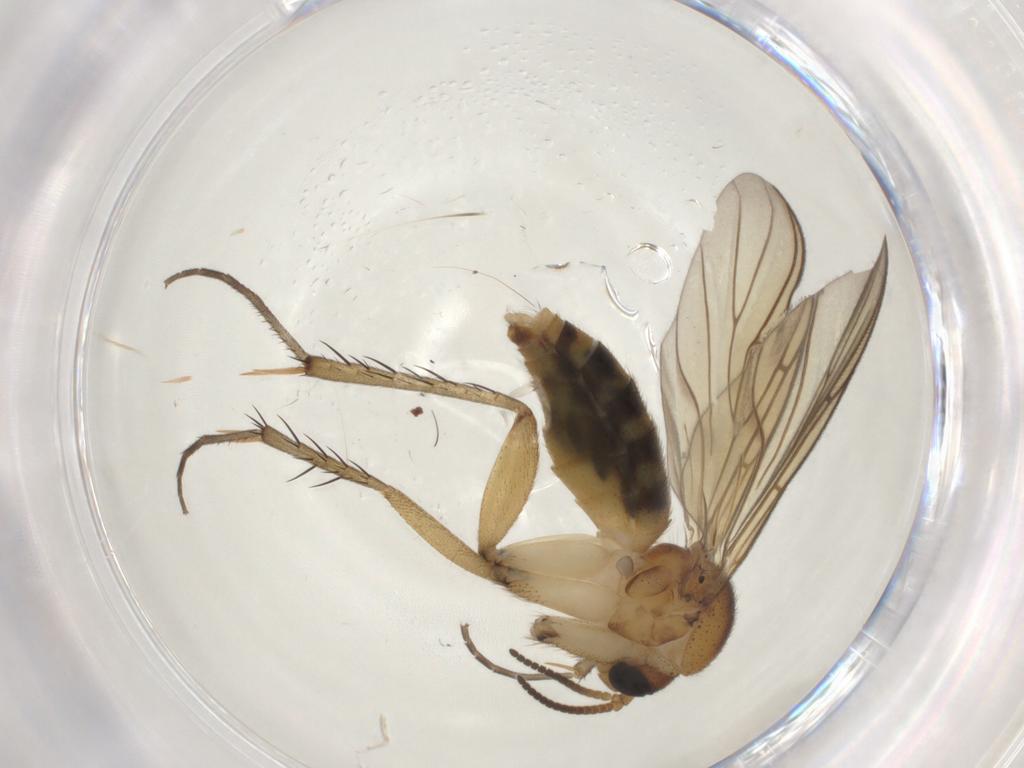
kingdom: Animalia
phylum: Arthropoda
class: Insecta
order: Diptera
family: Mycetophilidae
